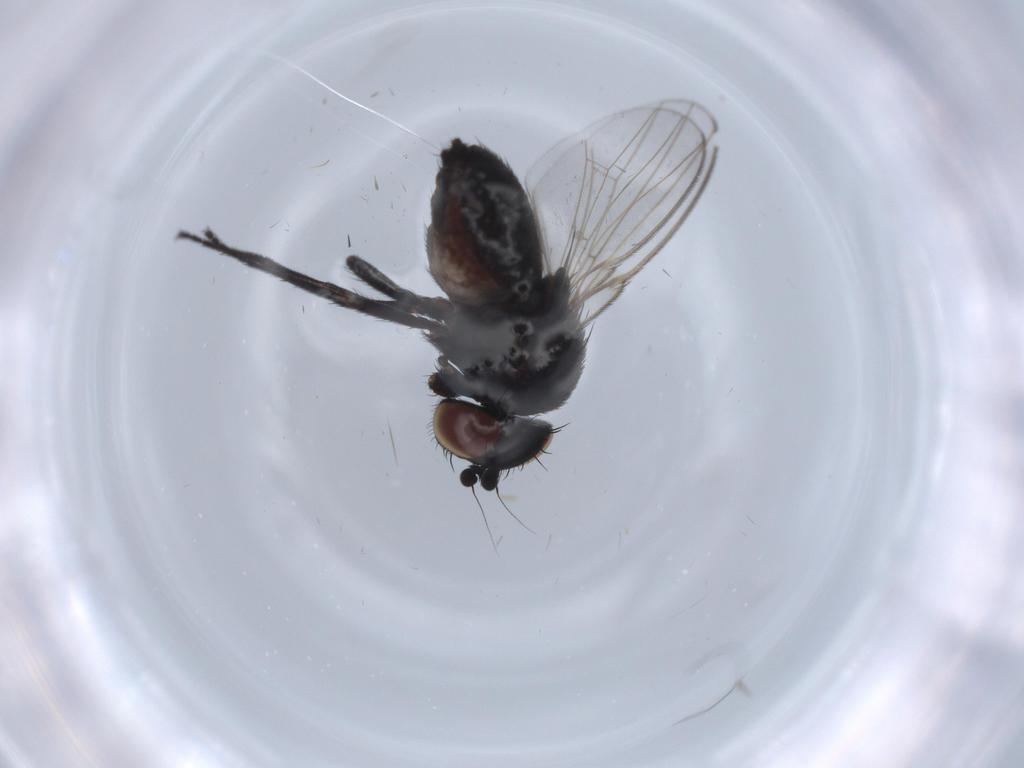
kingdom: Animalia
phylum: Arthropoda
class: Insecta
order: Diptera
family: Milichiidae
